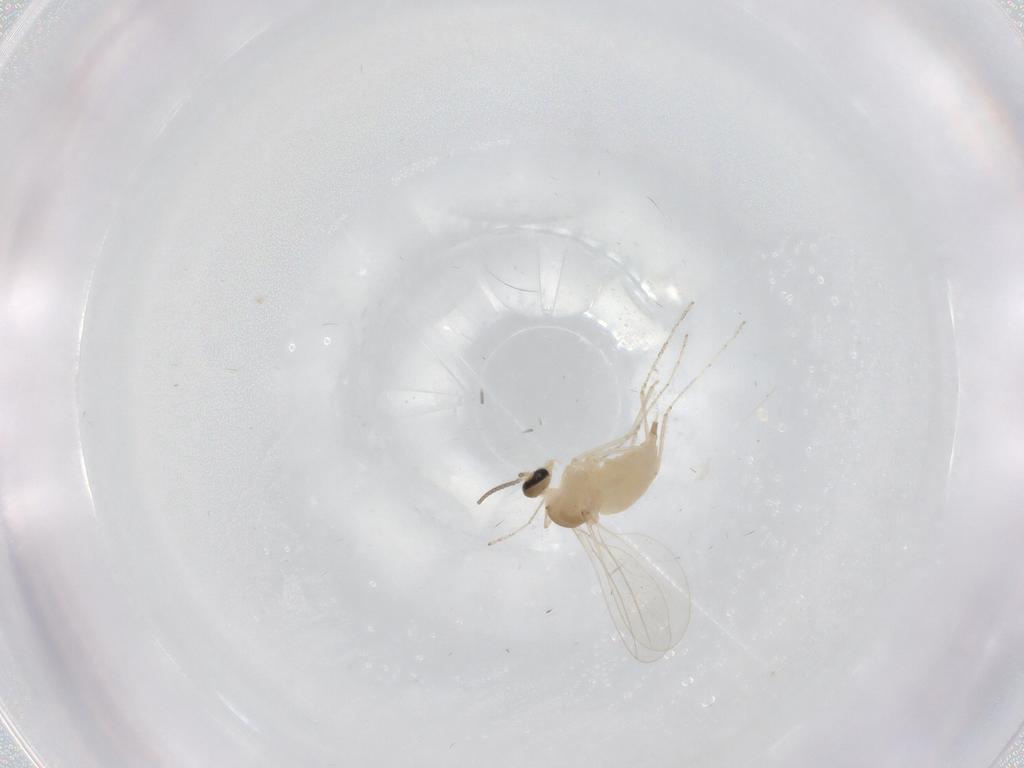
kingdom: Animalia
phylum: Arthropoda
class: Insecta
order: Diptera
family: Cecidomyiidae
